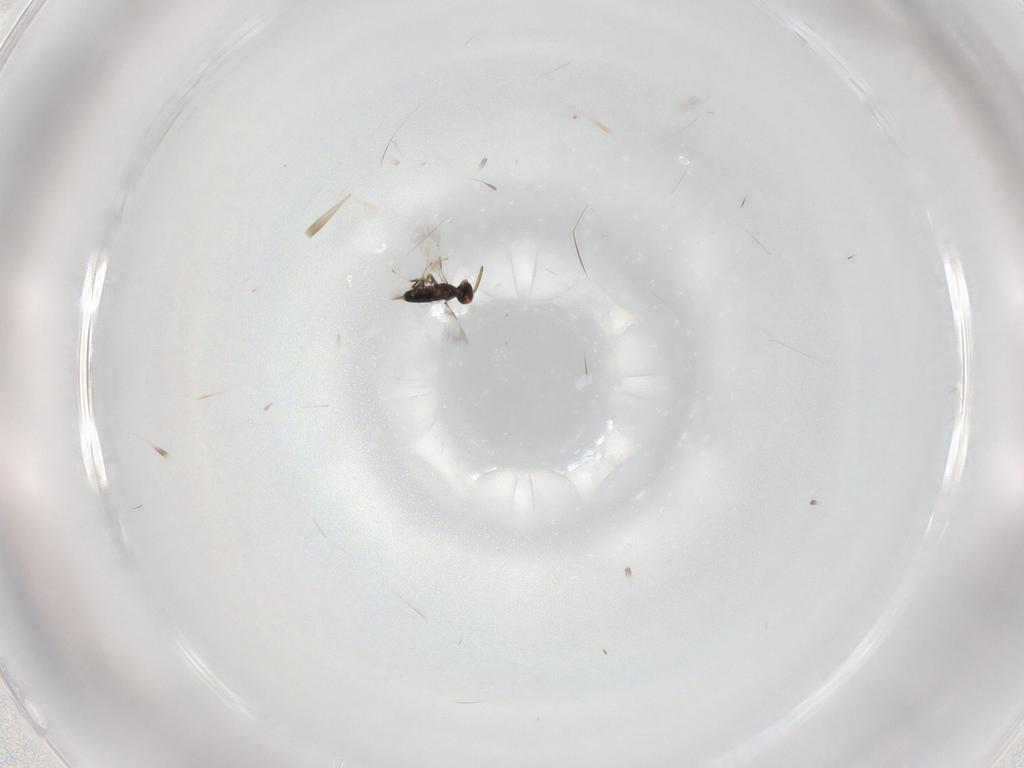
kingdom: Animalia
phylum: Arthropoda
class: Insecta
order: Hymenoptera
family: Signiphoridae
